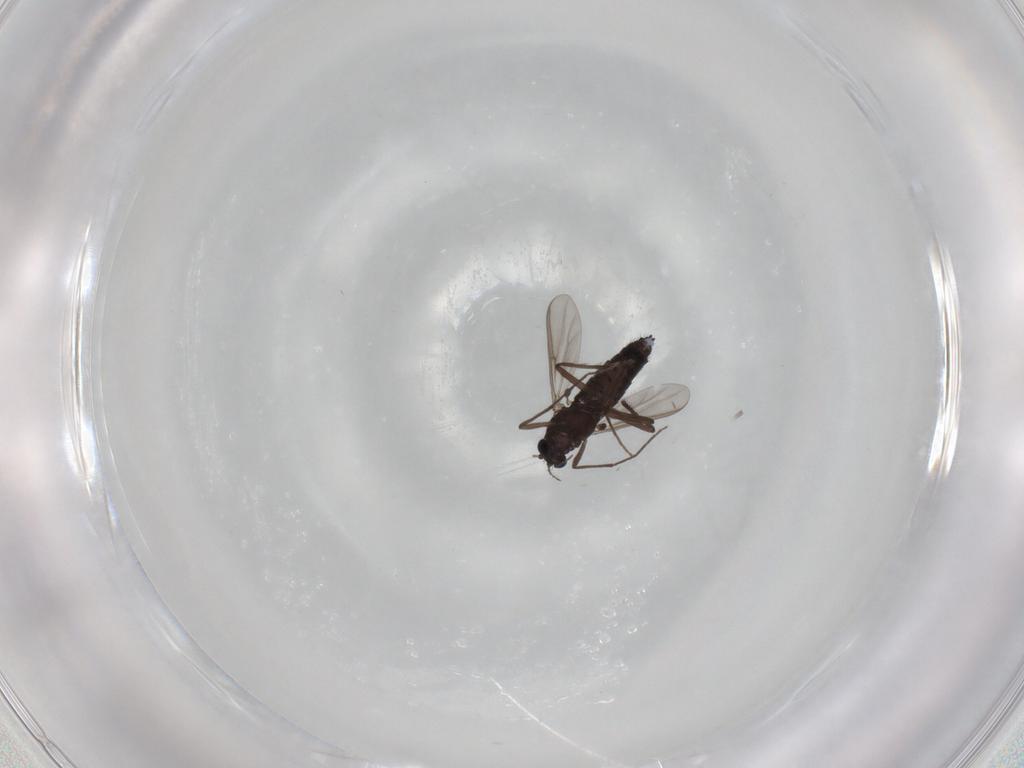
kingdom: Animalia
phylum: Arthropoda
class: Insecta
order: Diptera
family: Chironomidae
